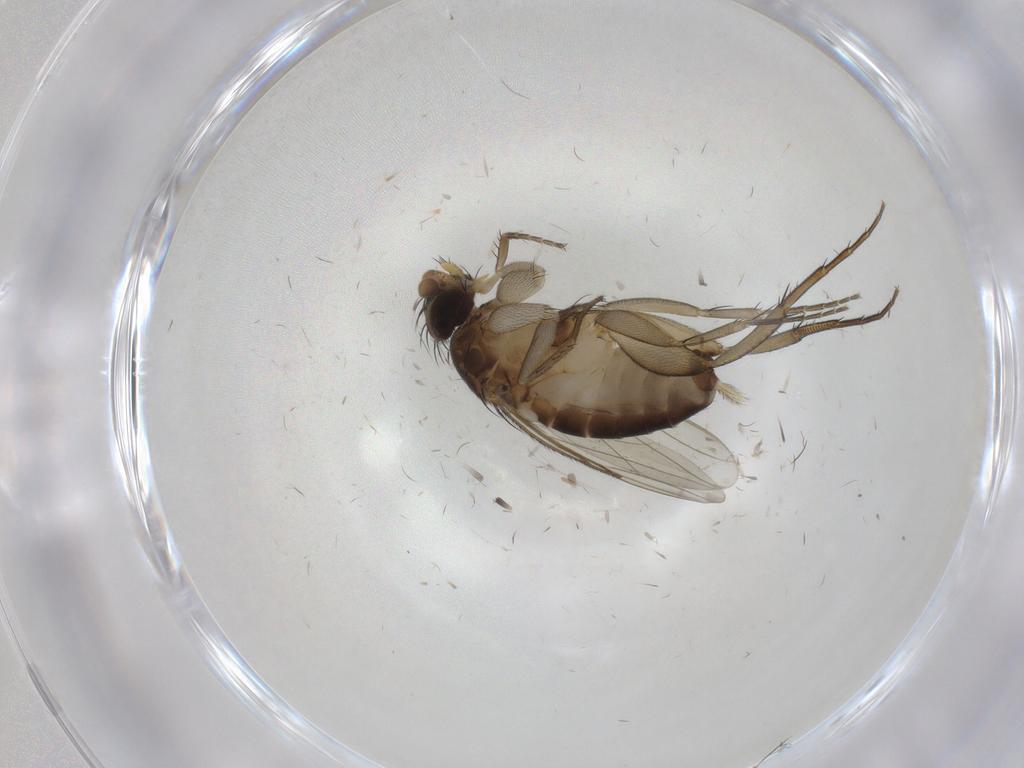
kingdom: Animalia
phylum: Arthropoda
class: Insecta
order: Diptera
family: Phoridae
